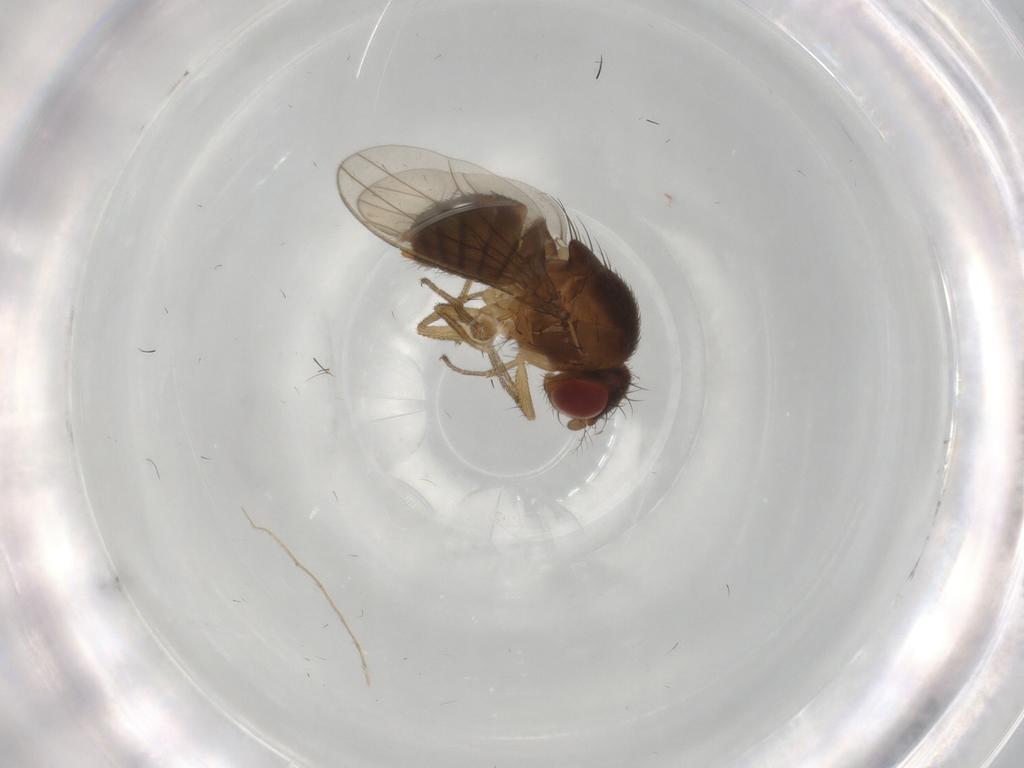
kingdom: Animalia
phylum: Arthropoda
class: Insecta
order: Diptera
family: Drosophilidae
